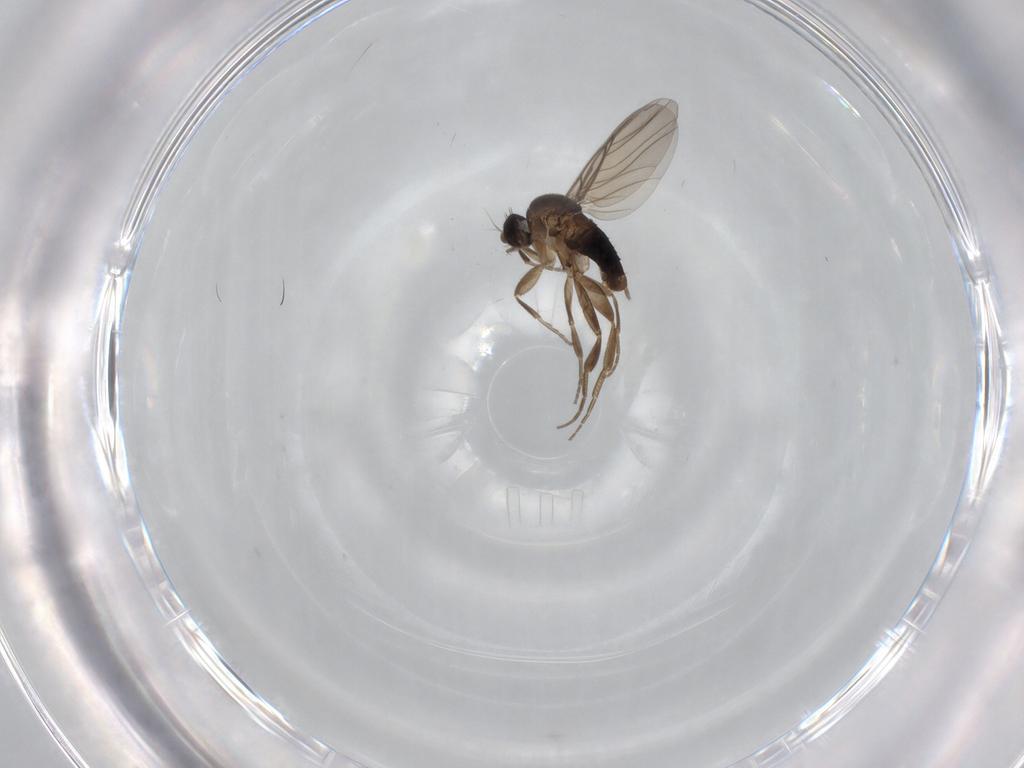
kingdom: Animalia
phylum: Arthropoda
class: Insecta
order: Diptera
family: Phoridae
